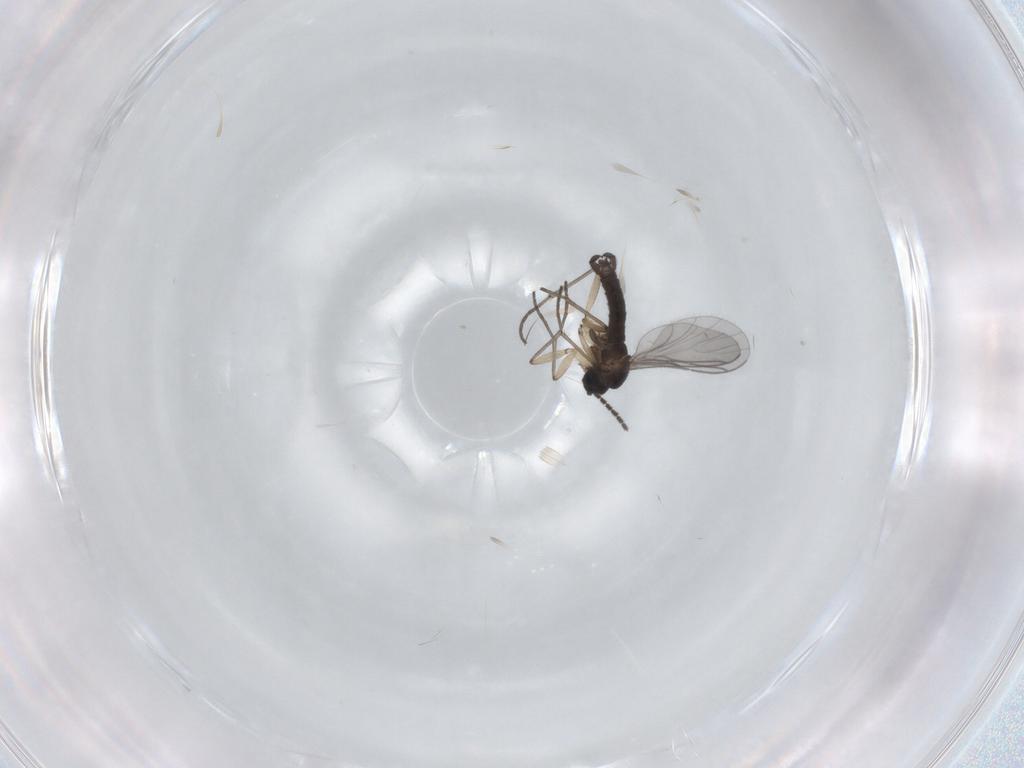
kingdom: Animalia
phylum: Arthropoda
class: Insecta
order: Diptera
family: Sciaridae
